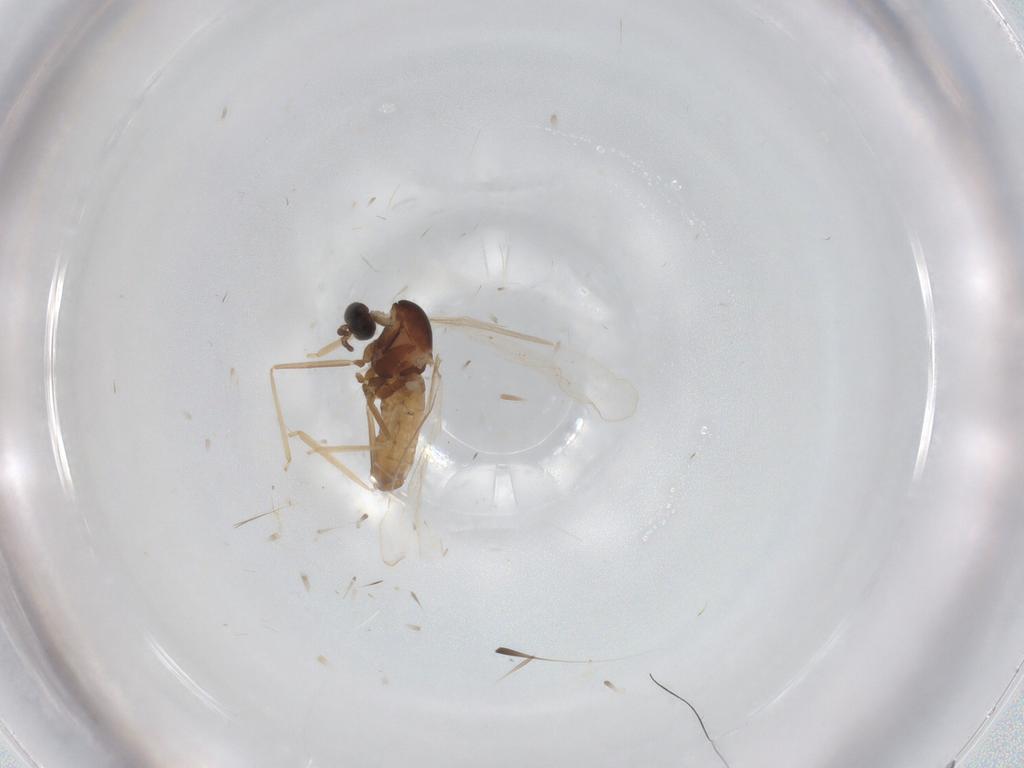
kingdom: Animalia
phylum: Arthropoda
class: Insecta
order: Diptera
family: Cecidomyiidae
